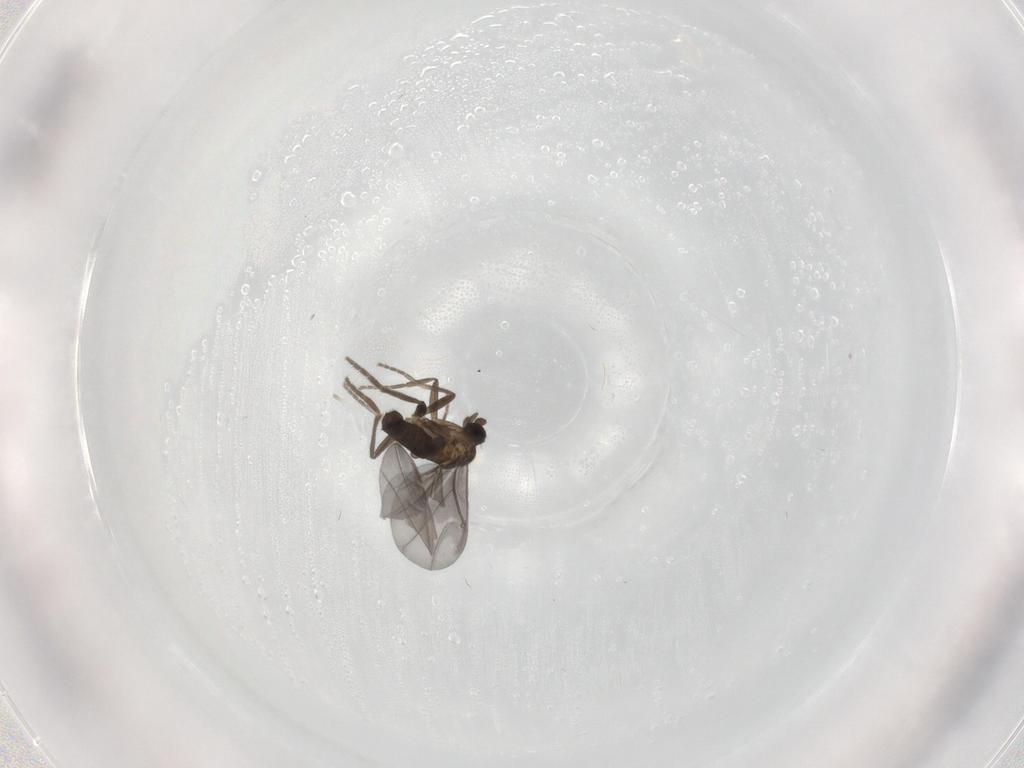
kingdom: Animalia
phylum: Arthropoda
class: Insecta
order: Diptera
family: Phoridae
